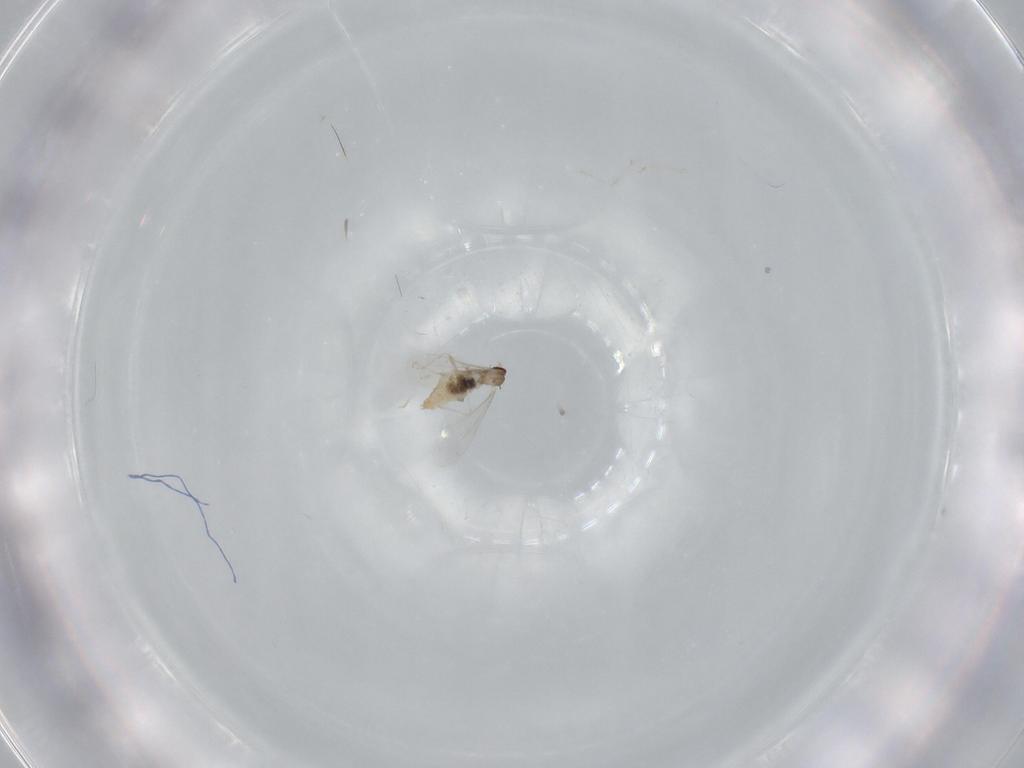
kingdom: Animalia
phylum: Arthropoda
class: Insecta
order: Diptera
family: Cecidomyiidae
